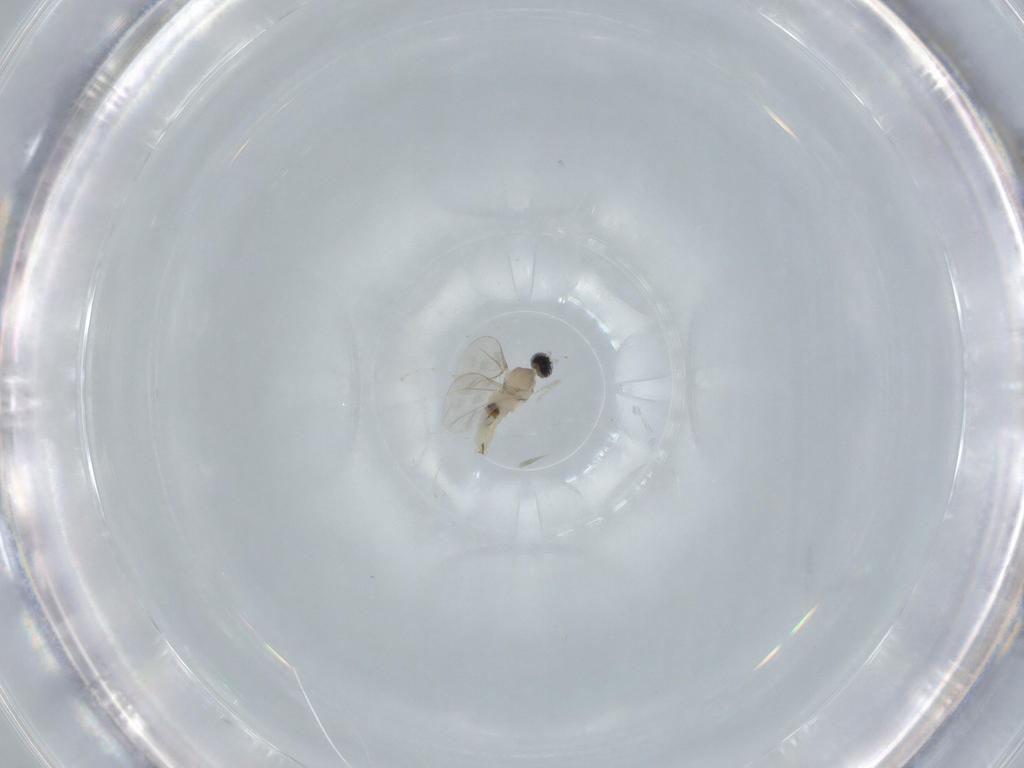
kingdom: Animalia
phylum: Arthropoda
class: Insecta
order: Diptera
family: Cecidomyiidae
